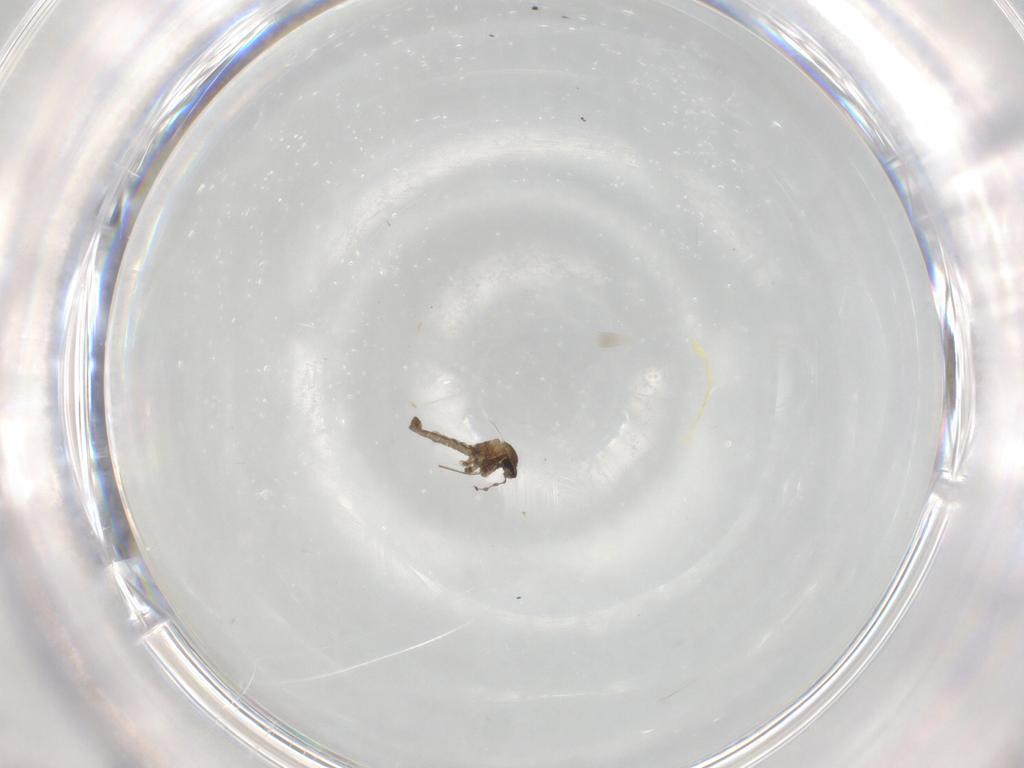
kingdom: Animalia
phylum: Arthropoda
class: Insecta
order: Diptera
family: Cecidomyiidae
